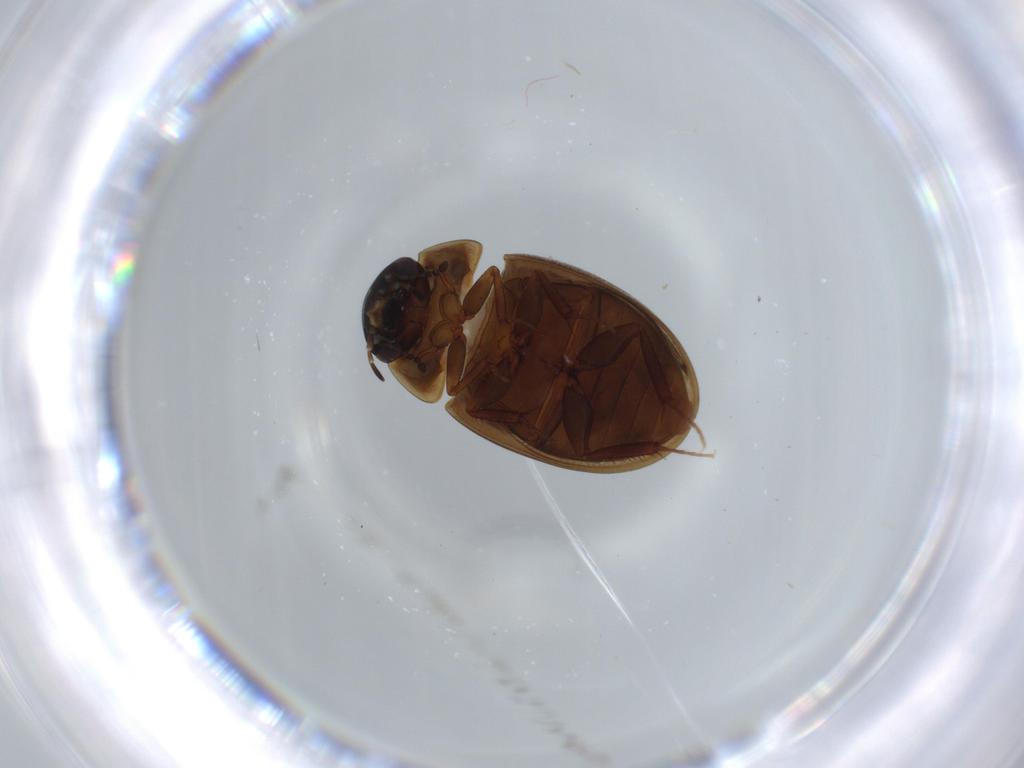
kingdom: Animalia
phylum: Arthropoda
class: Insecta
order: Coleoptera
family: Hydrophilidae
